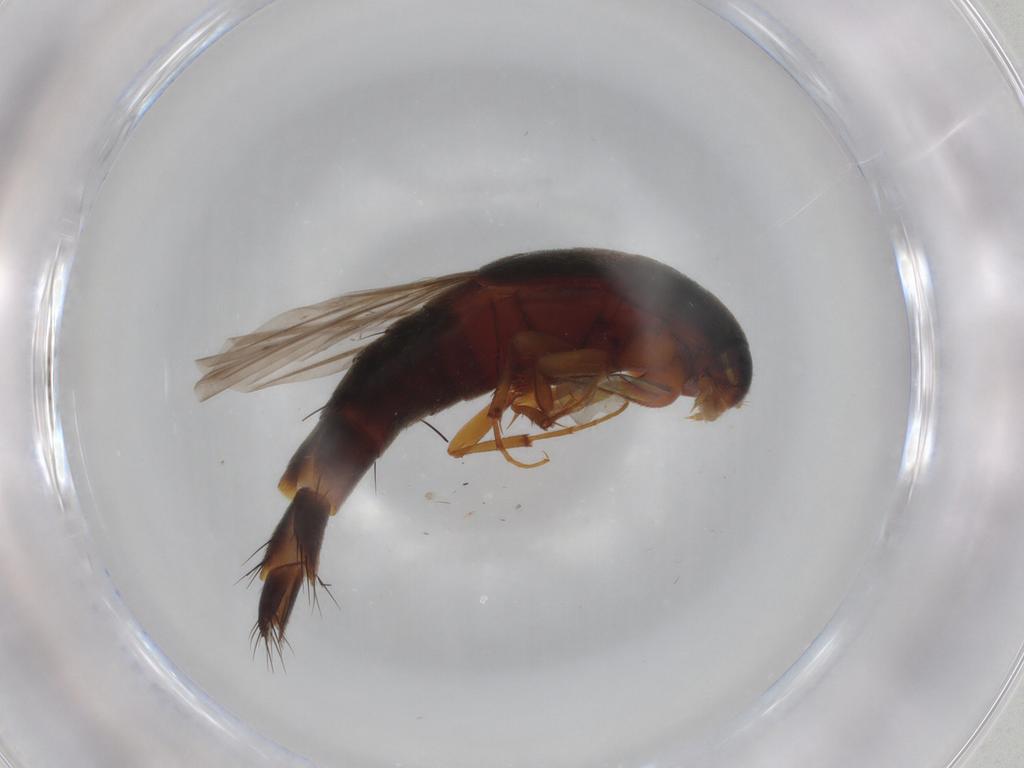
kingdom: Animalia
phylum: Arthropoda
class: Insecta
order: Coleoptera
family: Staphylinidae
